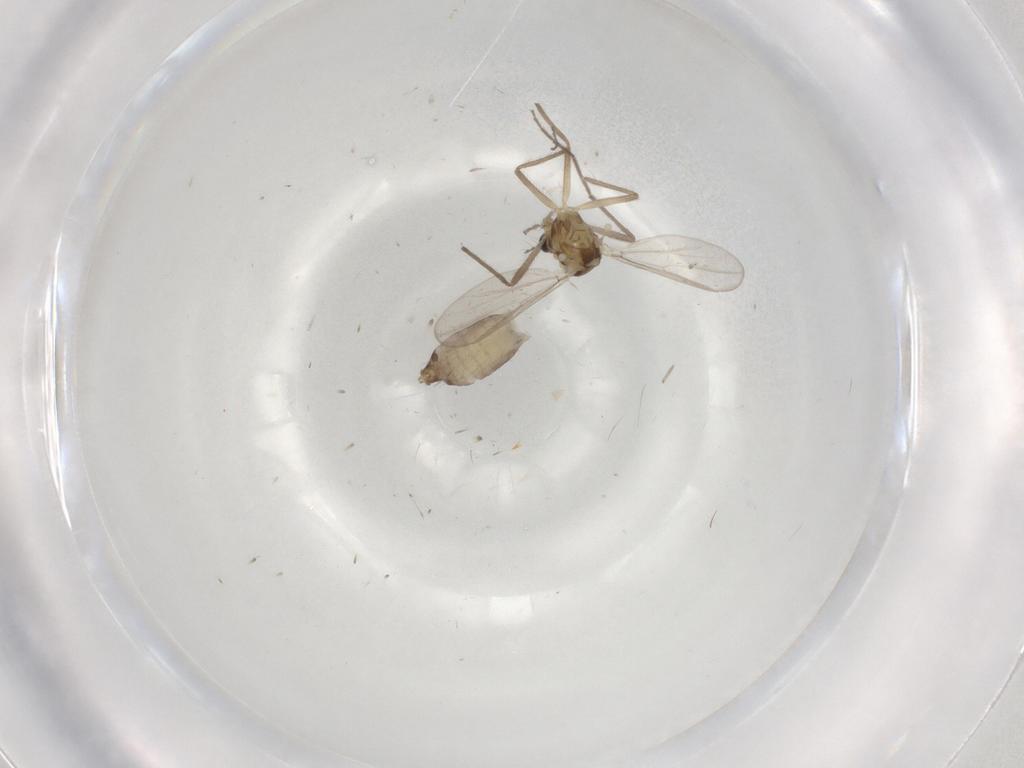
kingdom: Animalia
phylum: Arthropoda
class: Insecta
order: Diptera
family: Chironomidae
